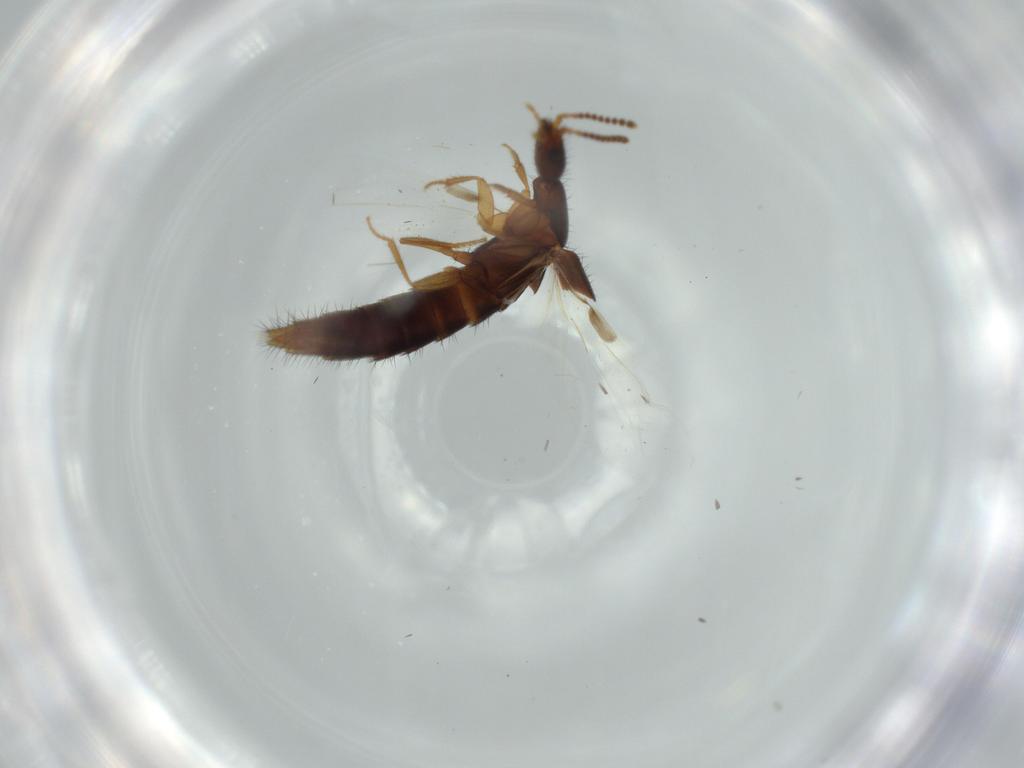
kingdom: Animalia
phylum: Arthropoda
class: Insecta
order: Coleoptera
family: Staphylinidae
